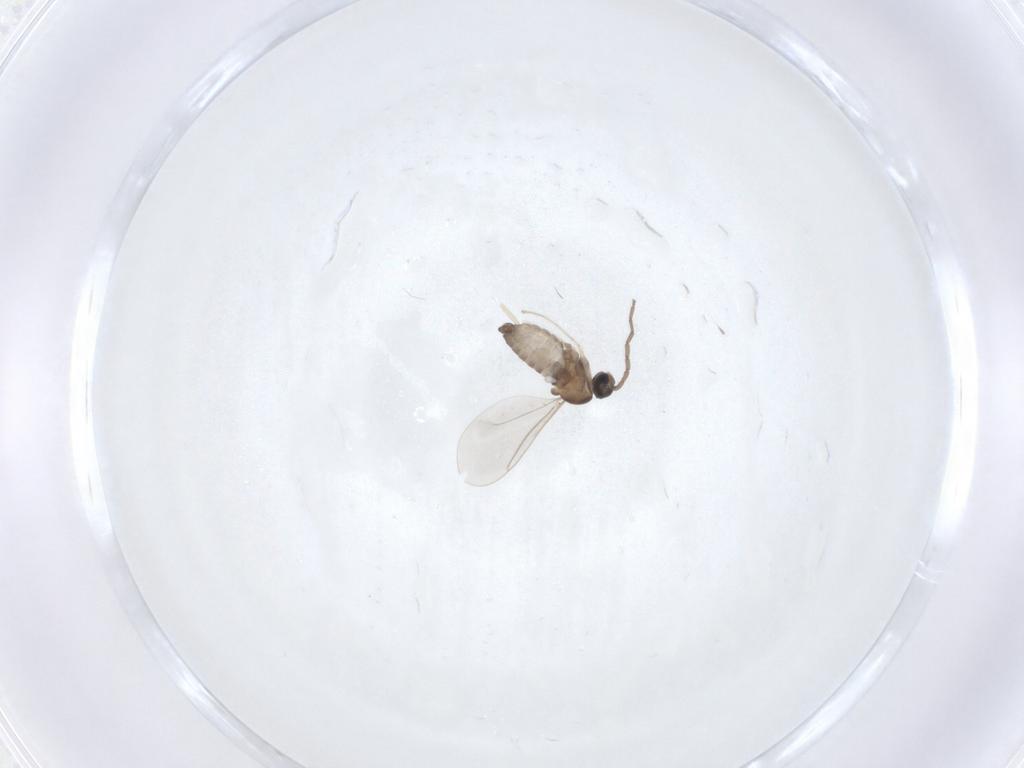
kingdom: Animalia
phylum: Arthropoda
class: Insecta
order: Diptera
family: Cecidomyiidae
